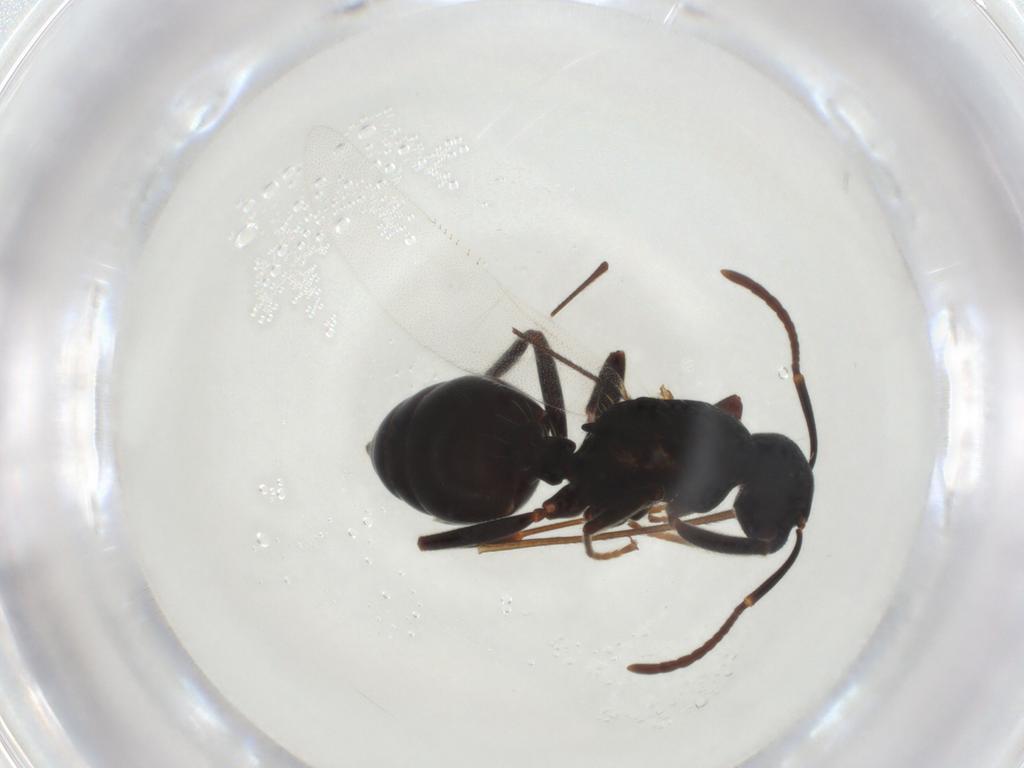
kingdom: Animalia
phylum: Arthropoda
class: Insecta
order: Hymenoptera
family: Formicidae
